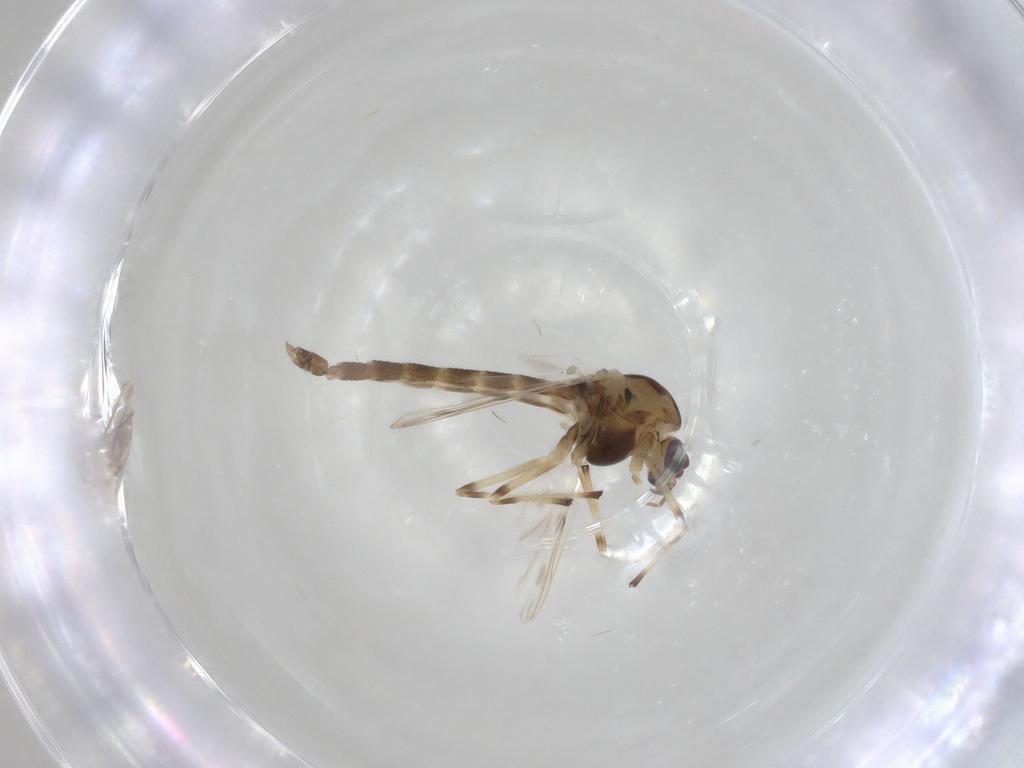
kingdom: Animalia
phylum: Arthropoda
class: Insecta
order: Diptera
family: Chironomidae
